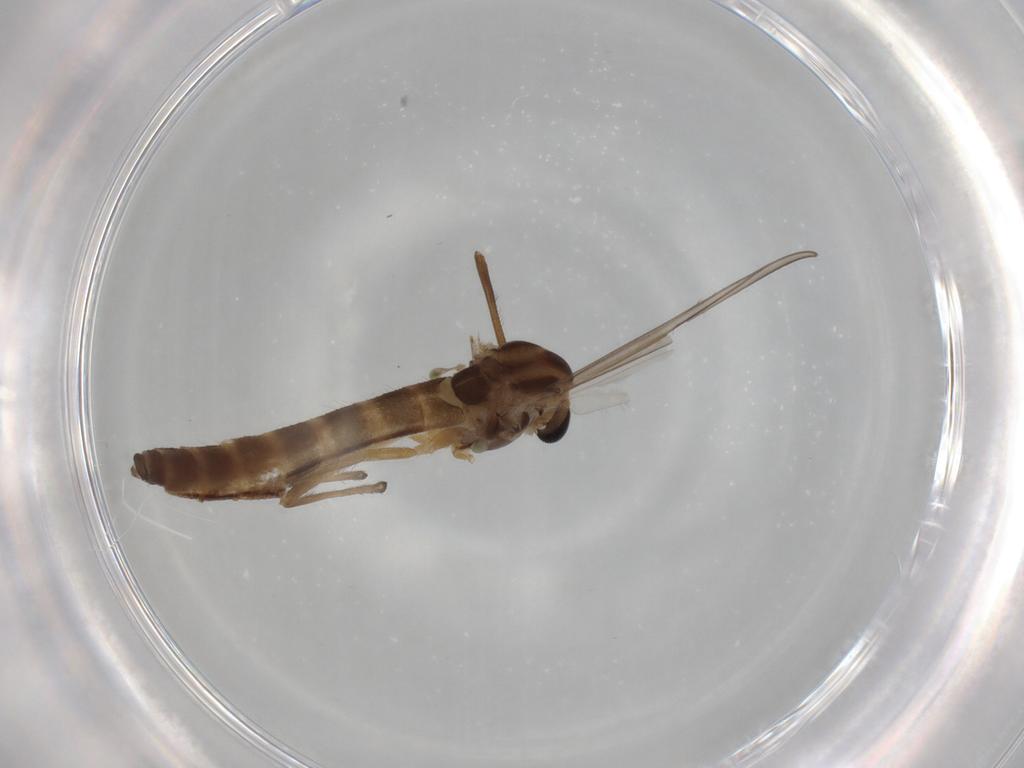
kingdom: Animalia
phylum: Arthropoda
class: Insecta
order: Diptera
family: Chironomidae
